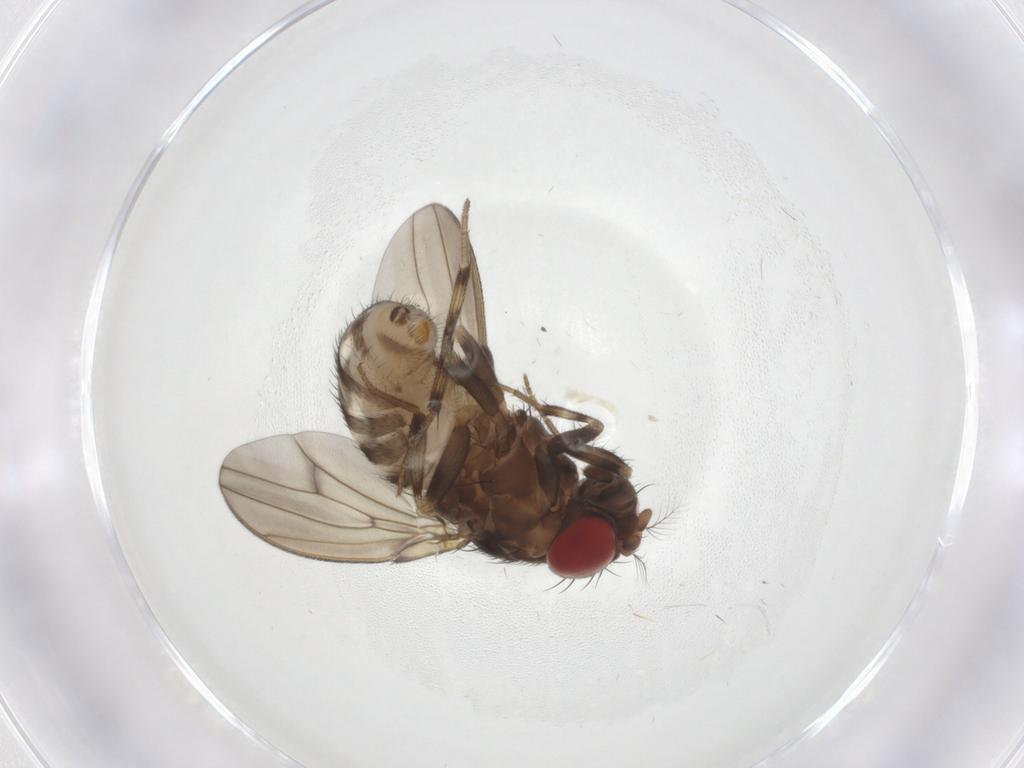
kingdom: Animalia
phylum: Arthropoda
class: Insecta
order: Diptera
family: Drosophilidae
